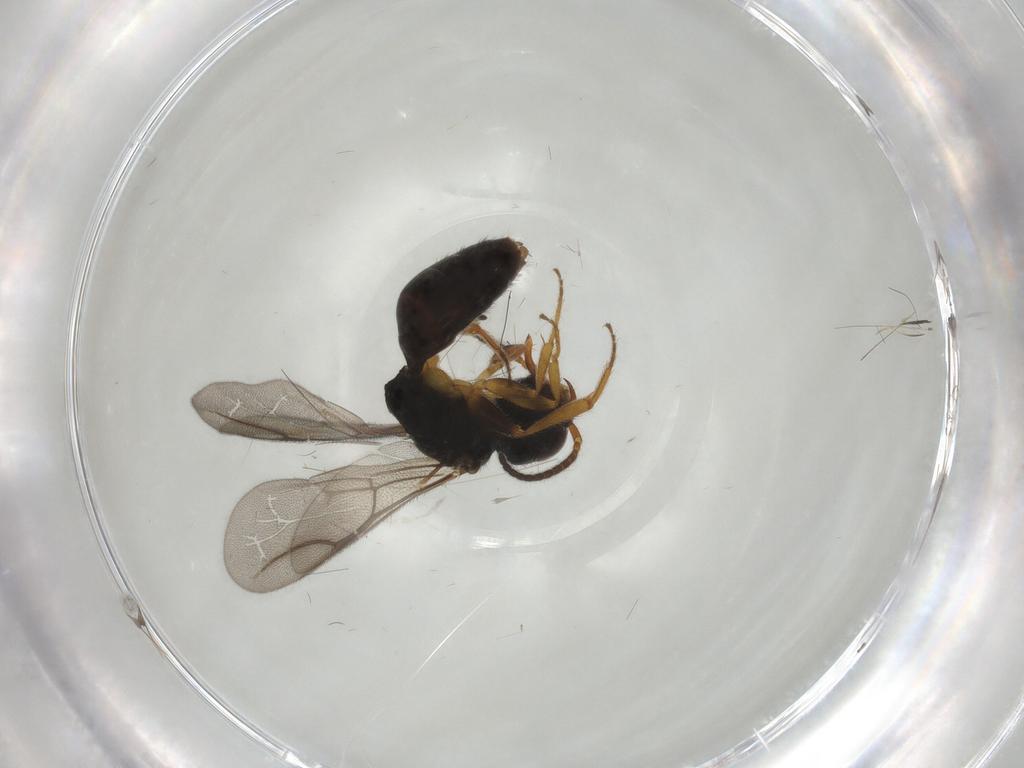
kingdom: Animalia
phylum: Arthropoda
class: Insecta
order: Hymenoptera
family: Bethylidae
